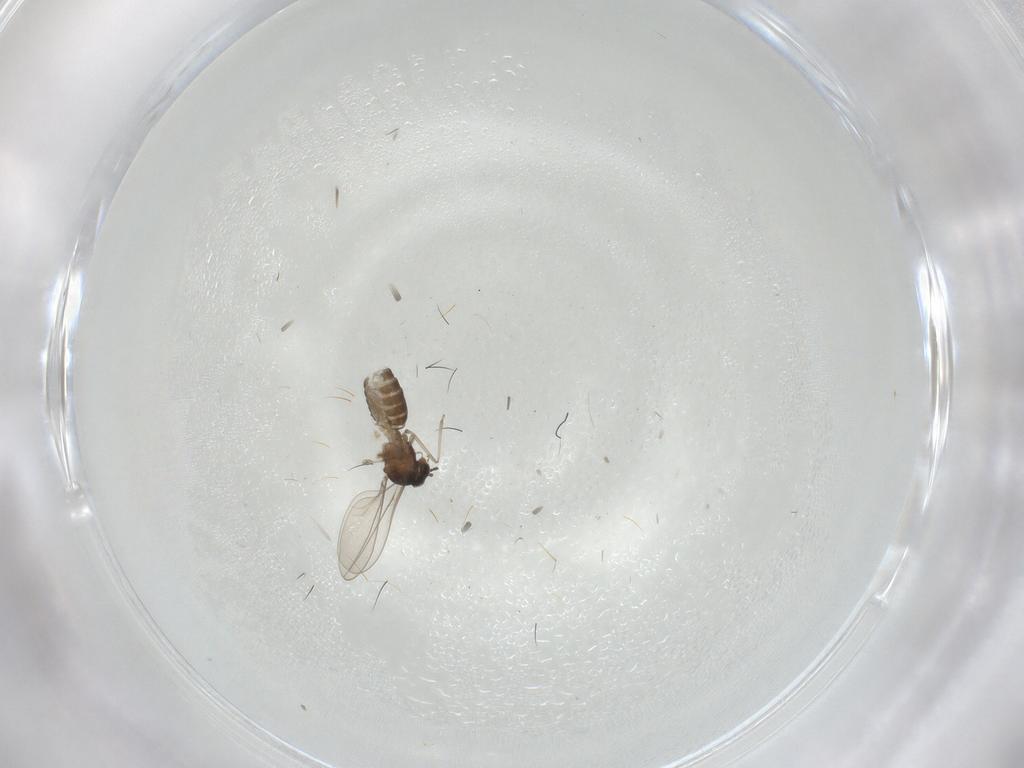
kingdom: Animalia
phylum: Arthropoda
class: Insecta
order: Diptera
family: Cecidomyiidae
